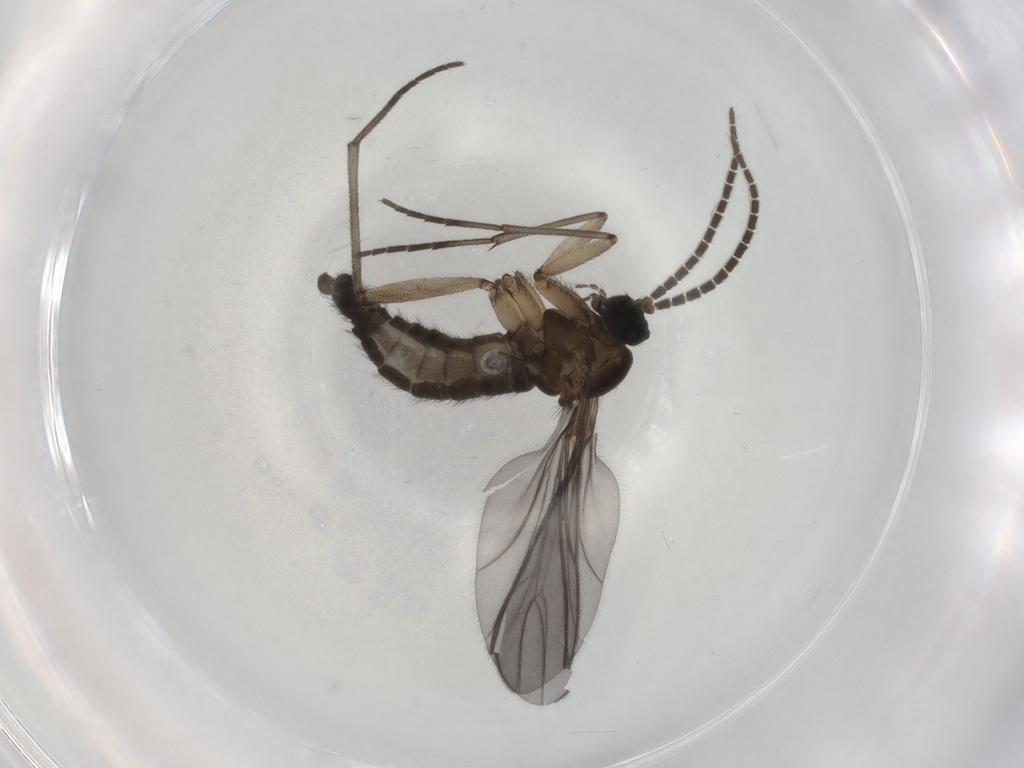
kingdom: Animalia
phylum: Arthropoda
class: Insecta
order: Diptera
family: Sciaridae
